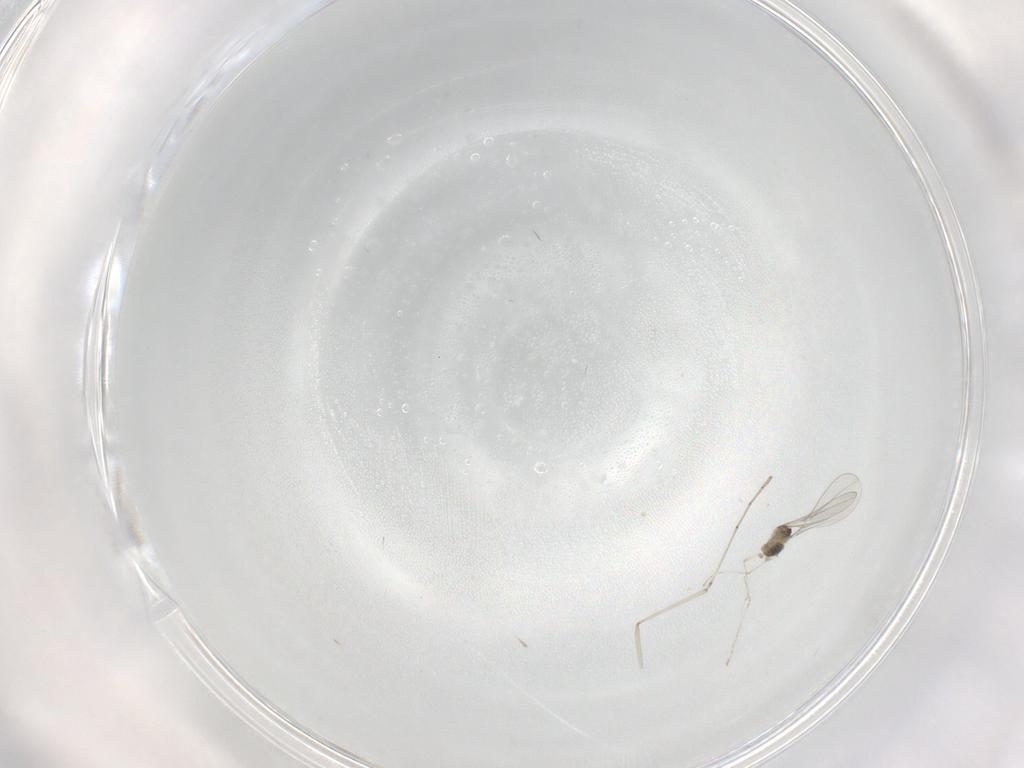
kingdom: Animalia
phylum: Arthropoda
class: Insecta
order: Diptera
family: Cecidomyiidae
